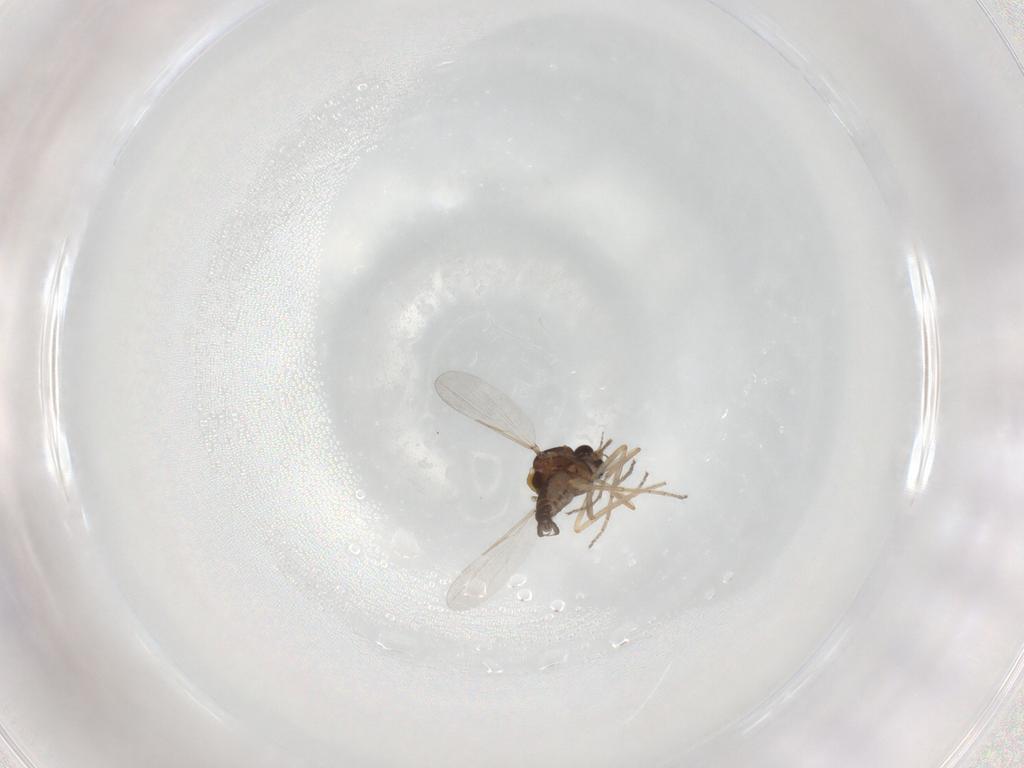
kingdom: Animalia
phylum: Arthropoda
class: Insecta
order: Diptera
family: Ceratopogonidae
